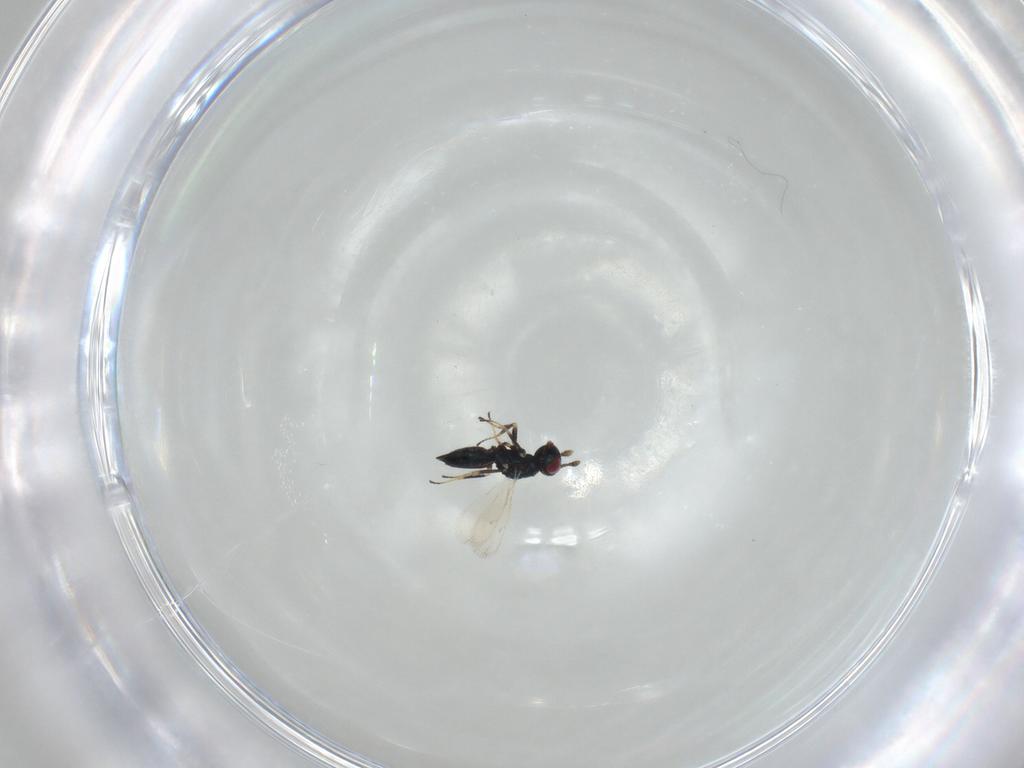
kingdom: Animalia
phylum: Arthropoda
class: Insecta
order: Hymenoptera
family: Tetracampidae
